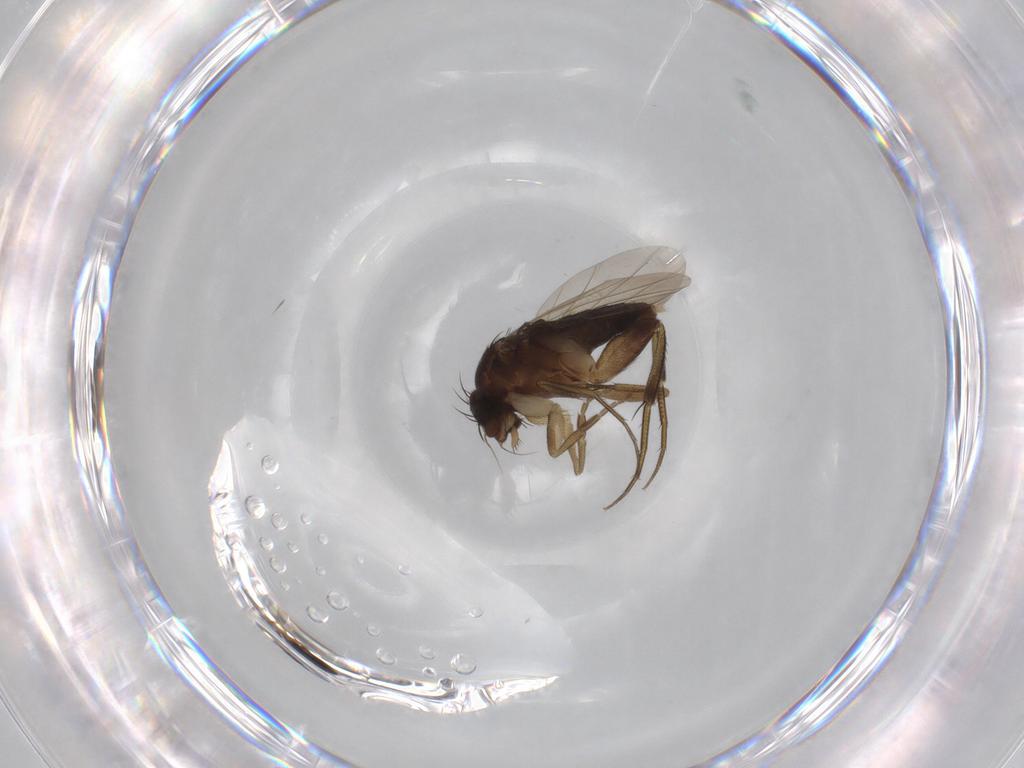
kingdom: Animalia
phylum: Arthropoda
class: Insecta
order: Diptera
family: Phoridae
